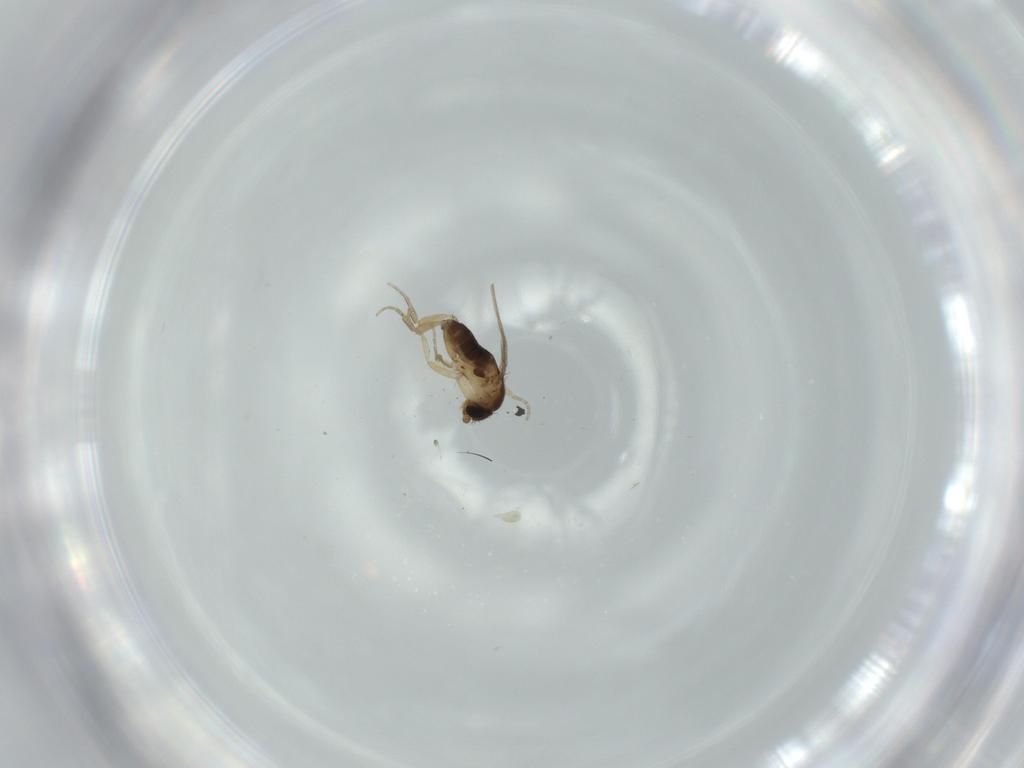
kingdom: Animalia
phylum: Arthropoda
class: Insecta
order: Diptera
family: Phoridae
